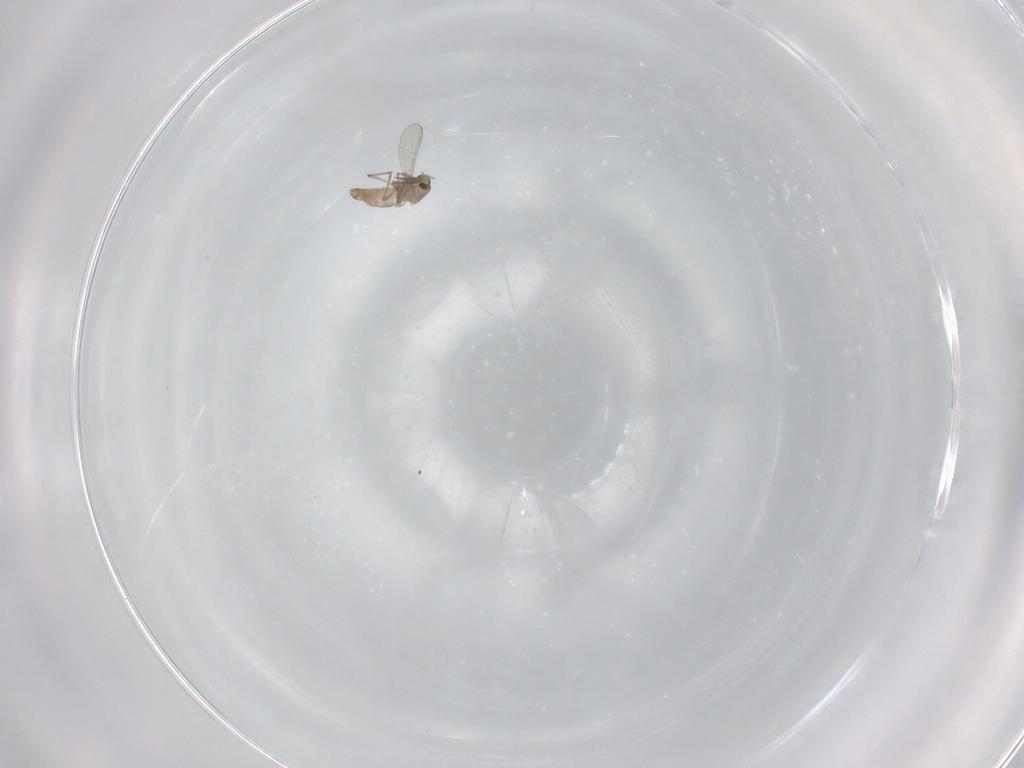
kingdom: Animalia
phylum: Arthropoda
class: Insecta
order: Diptera
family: Chironomidae
